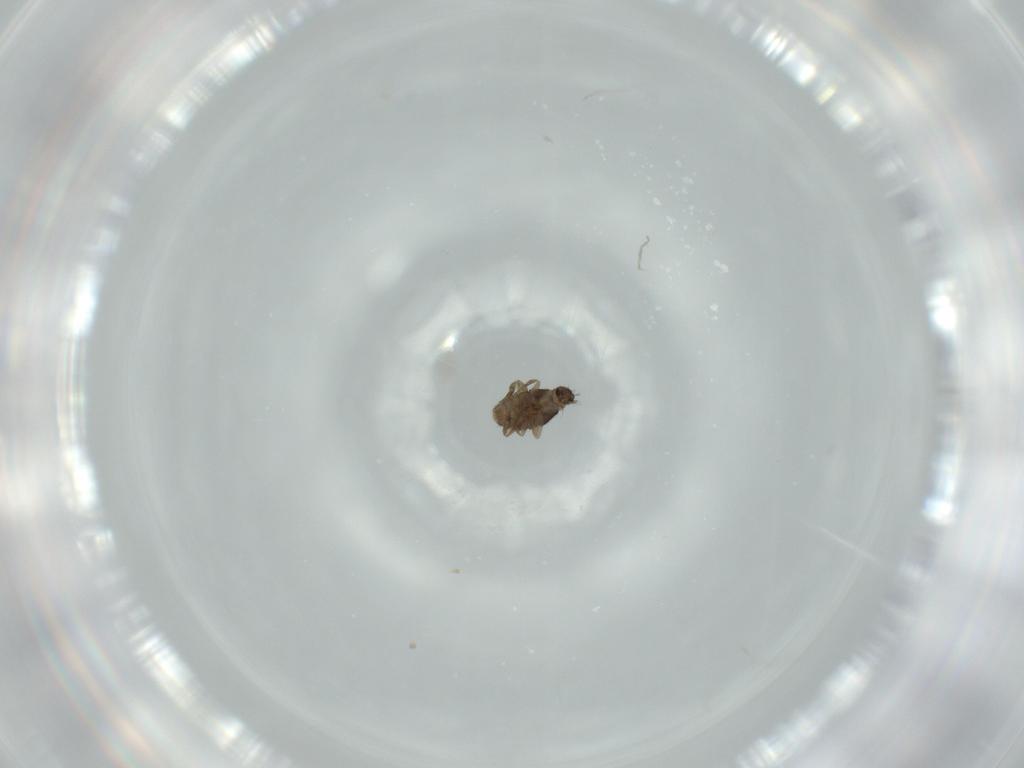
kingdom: Animalia
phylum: Arthropoda
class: Insecta
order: Diptera
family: Phoridae
